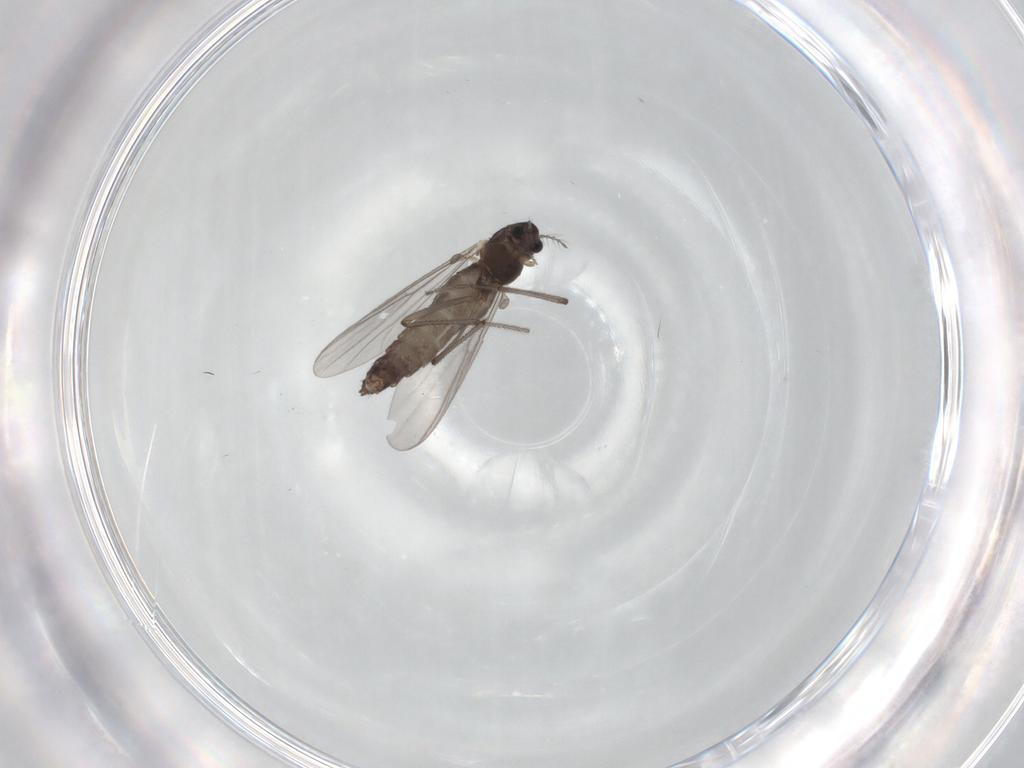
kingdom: Animalia
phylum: Arthropoda
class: Insecta
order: Diptera
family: Chironomidae
